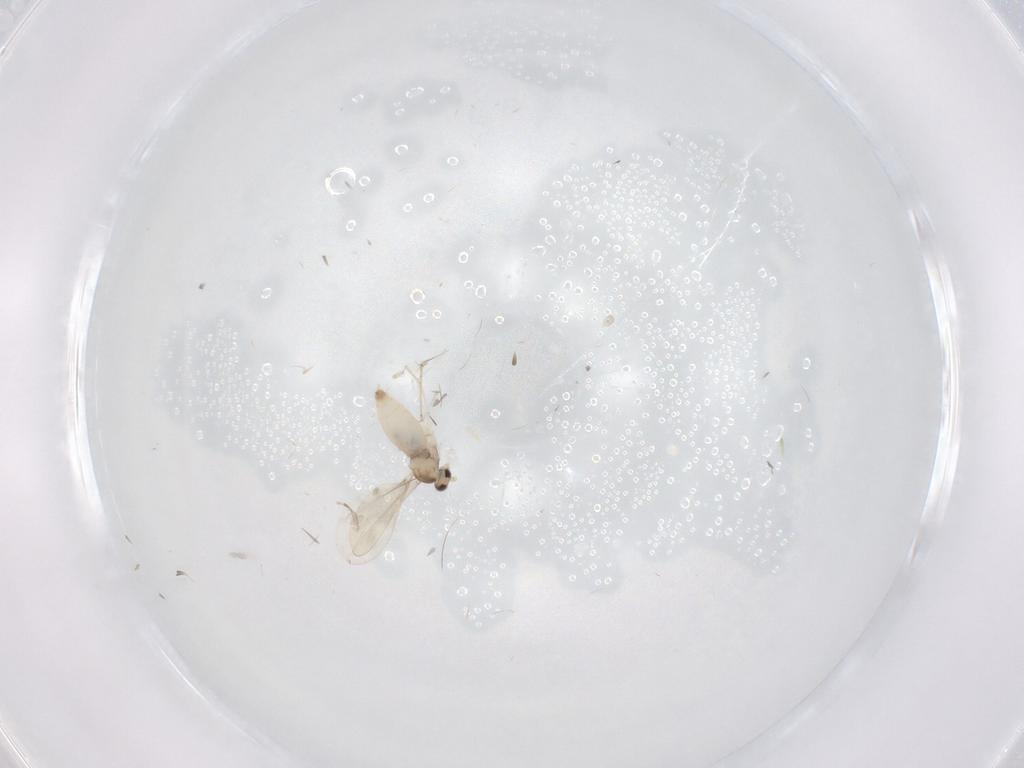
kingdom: Animalia
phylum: Arthropoda
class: Insecta
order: Diptera
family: Cecidomyiidae
